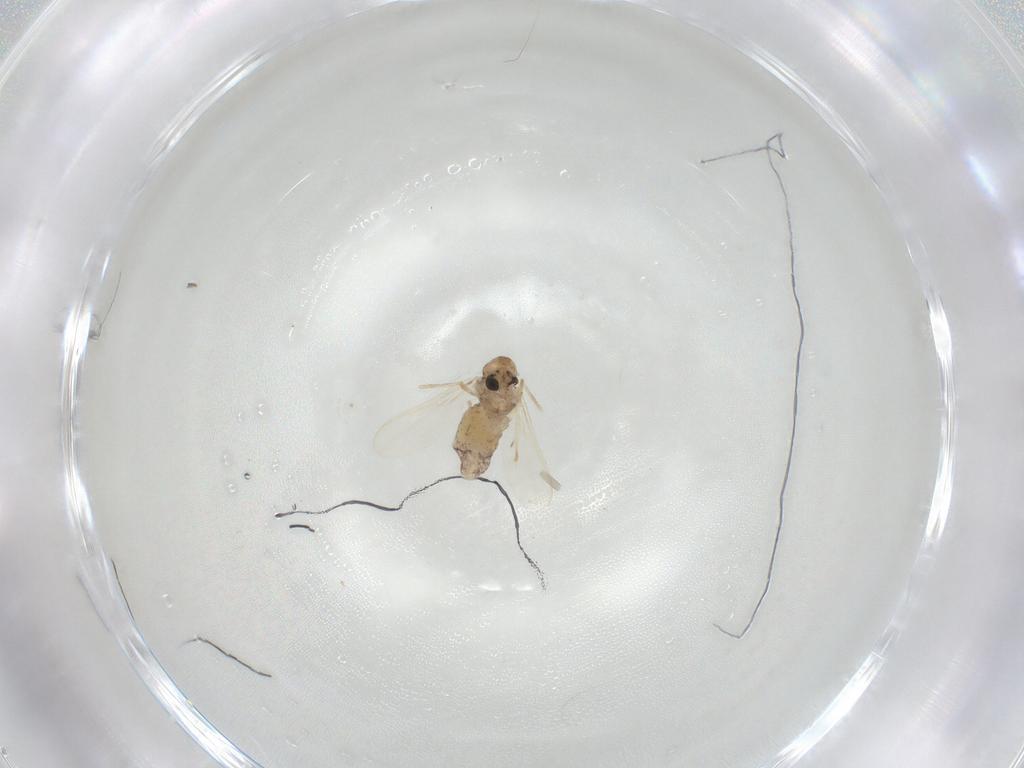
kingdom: Animalia
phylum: Arthropoda
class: Insecta
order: Diptera
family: Chironomidae
